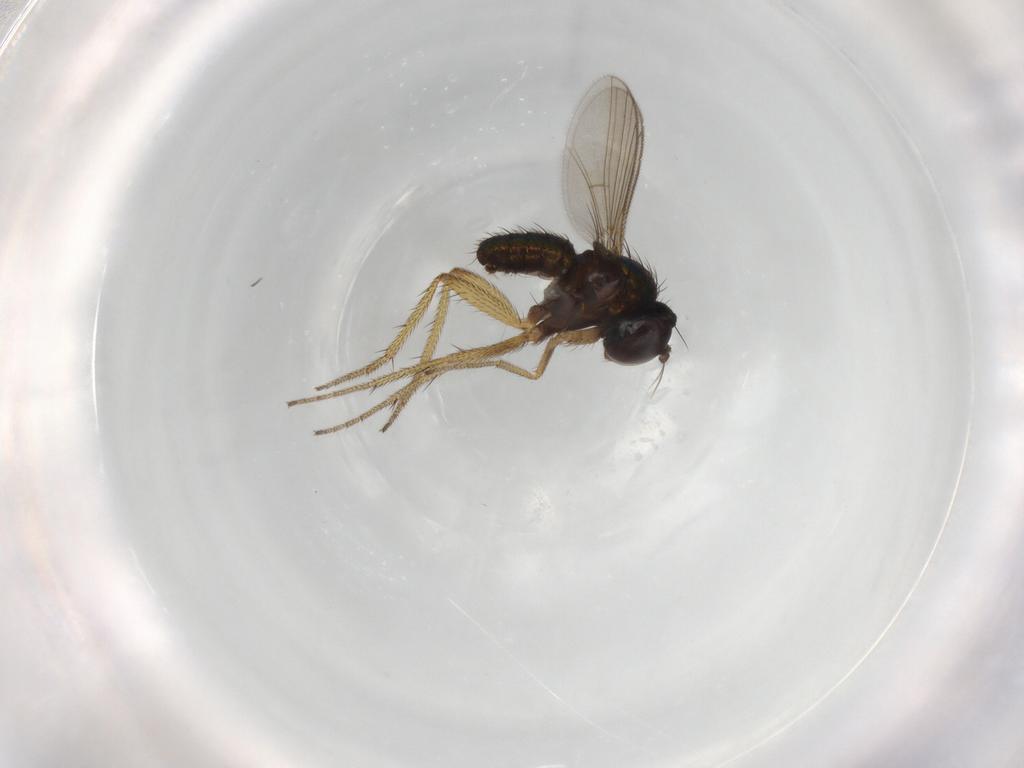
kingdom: Animalia
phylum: Arthropoda
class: Insecta
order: Diptera
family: Dolichopodidae
